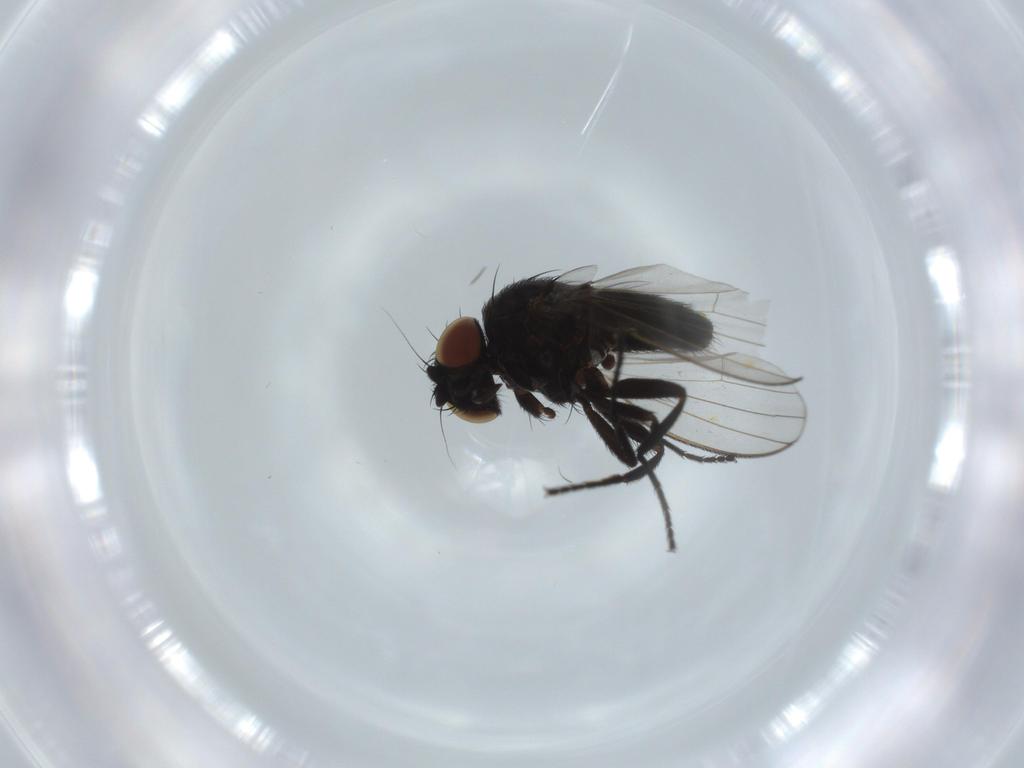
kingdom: Animalia
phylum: Arthropoda
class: Insecta
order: Diptera
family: Milichiidae
